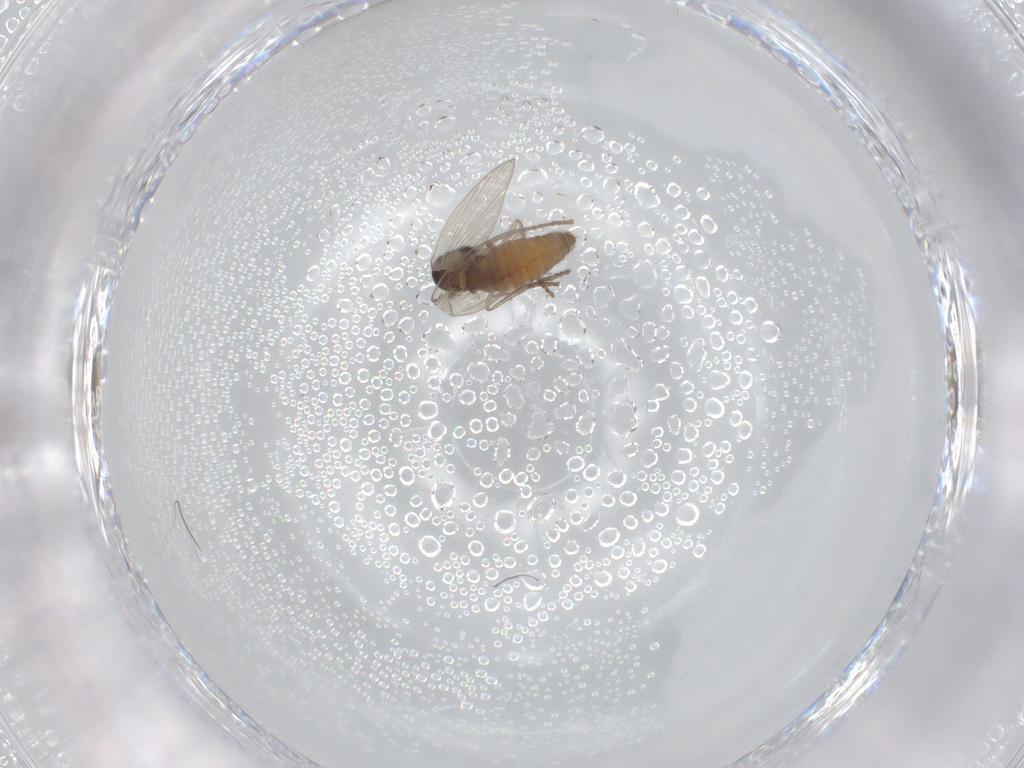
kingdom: Animalia
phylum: Arthropoda
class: Insecta
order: Diptera
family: Psychodidae
